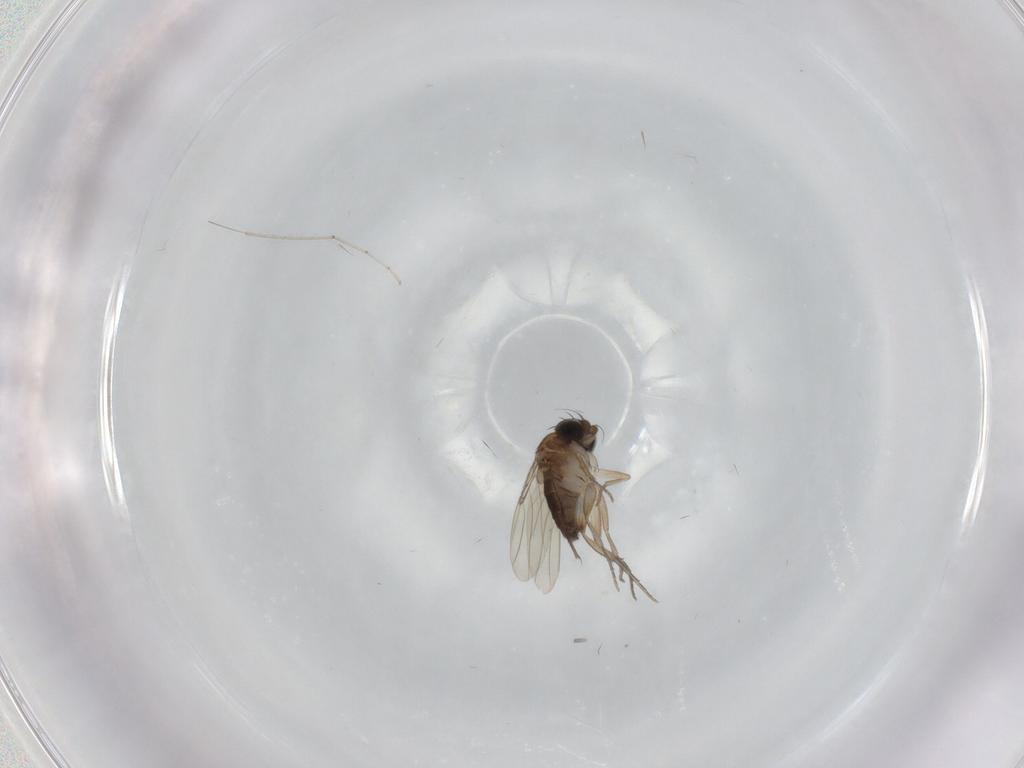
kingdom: Animalia
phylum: Arthropoda
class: Insecta
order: Diptera
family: Phoridae
